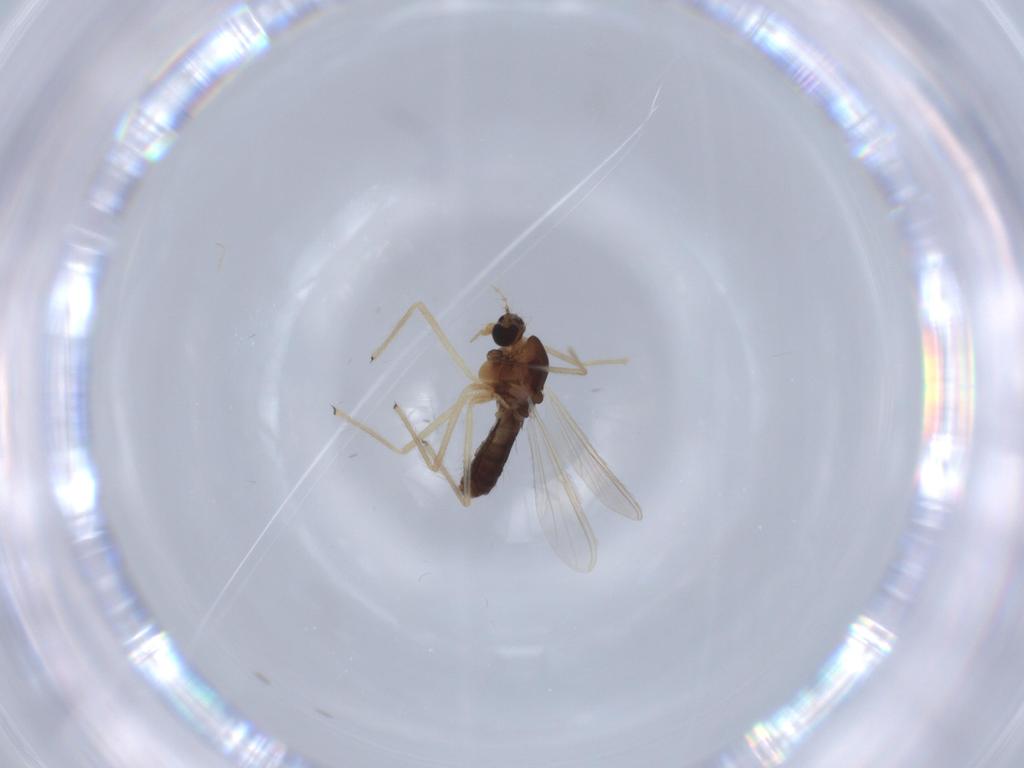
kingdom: Animalia
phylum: Arthropoda
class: Insecta
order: Diptera
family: Chironomidae
